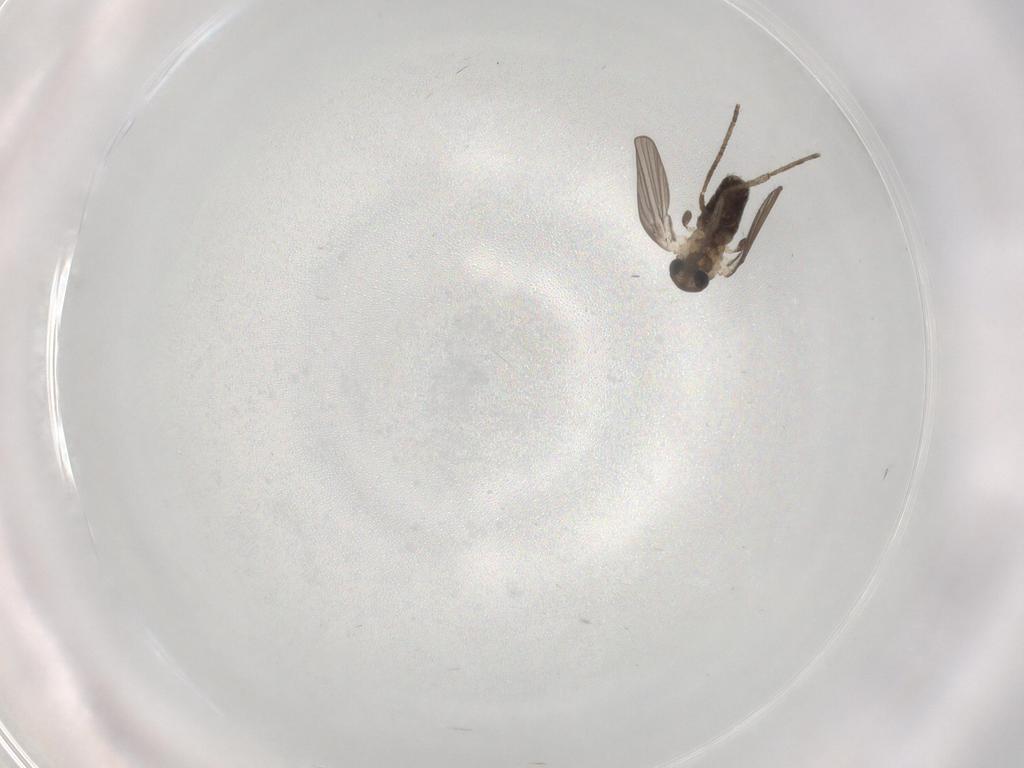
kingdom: Animalia
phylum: Arthropoda
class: Insecta
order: Diptera
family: Psychodidae
